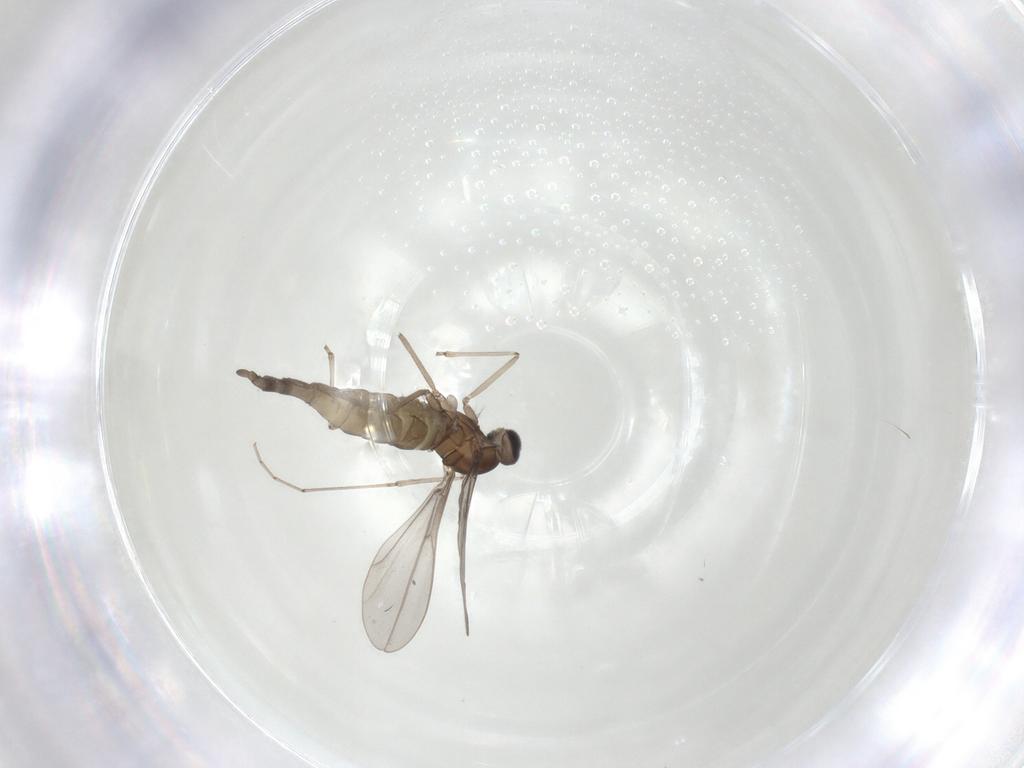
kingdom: Animalia
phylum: Arthropoda
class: Insecta
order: Diptera
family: Cecidomyiidae
